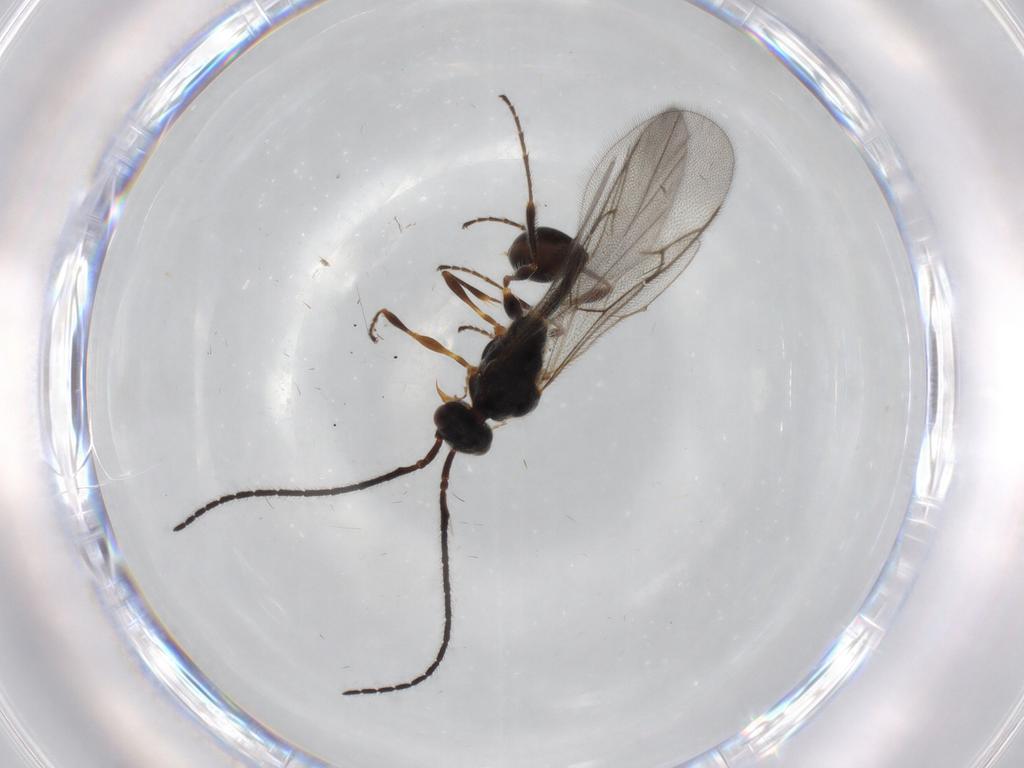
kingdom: Animalia
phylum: Arthropoda
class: Insecta
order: Hymenoptera
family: Diapriidae
